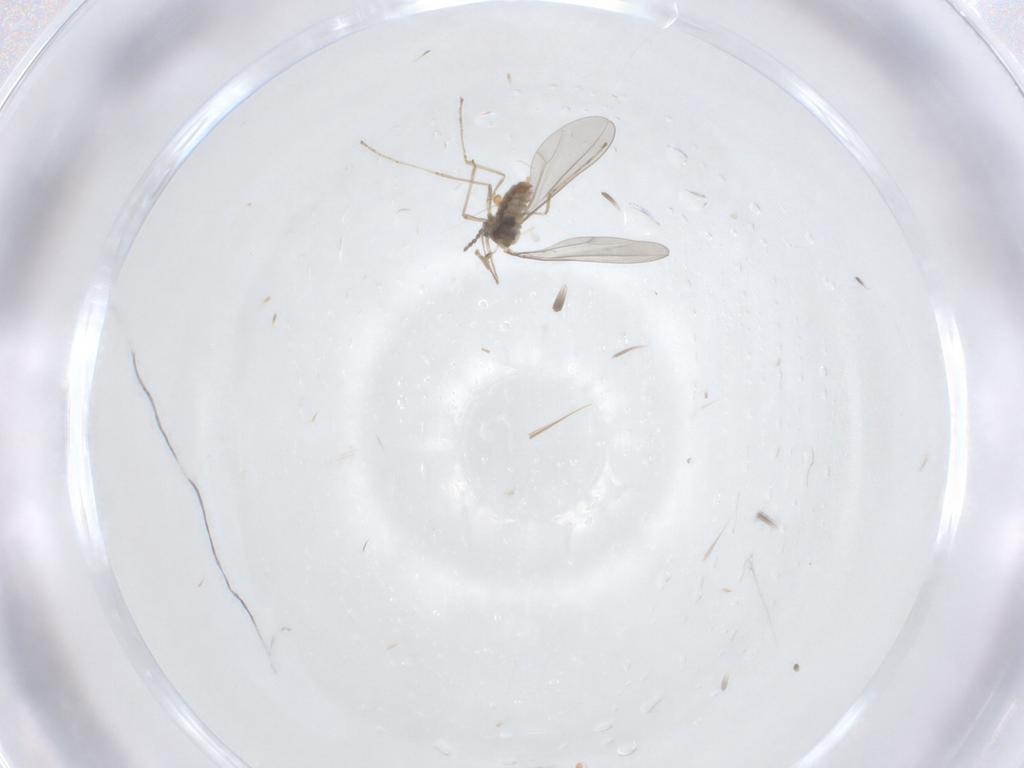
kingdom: Animalia
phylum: Arthropoda
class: Insecta
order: Diptera
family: Cecidomyiidae
